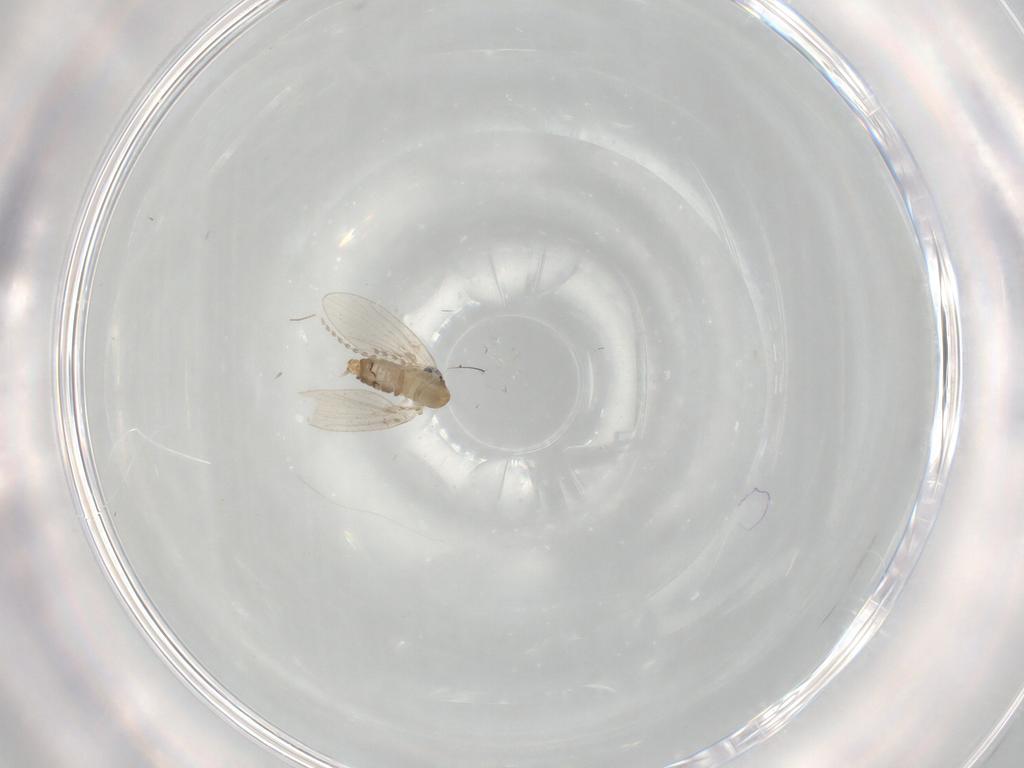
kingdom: Animalia
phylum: Arthropoda
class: Insecta
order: Diptera
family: Psychodidae
